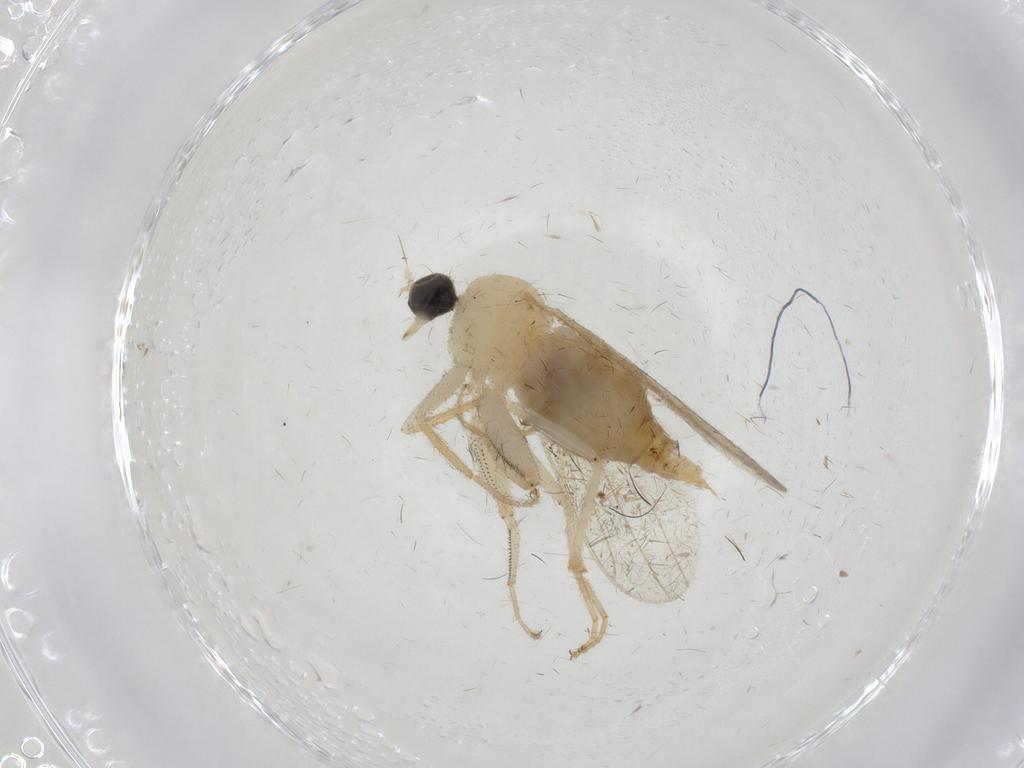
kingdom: Animalia
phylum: Arthropoda
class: Insecta
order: Diptera
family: Hybotidae
